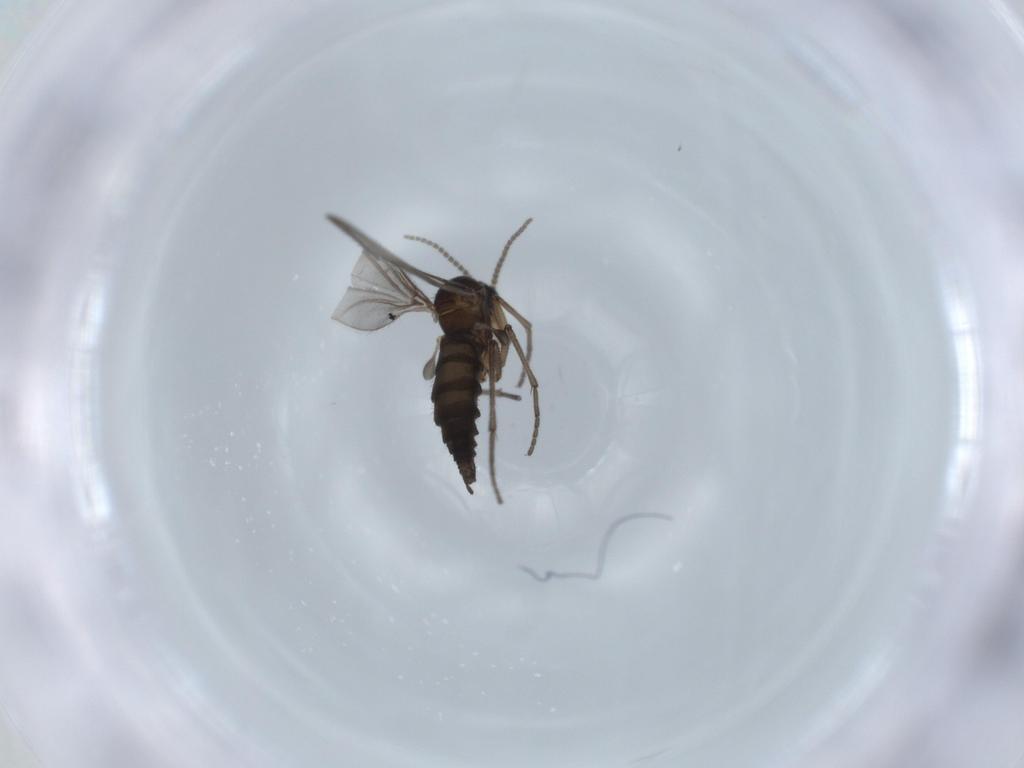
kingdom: Animalia
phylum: Arthropoda
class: Insecta
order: Diptera
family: Sciaridae
